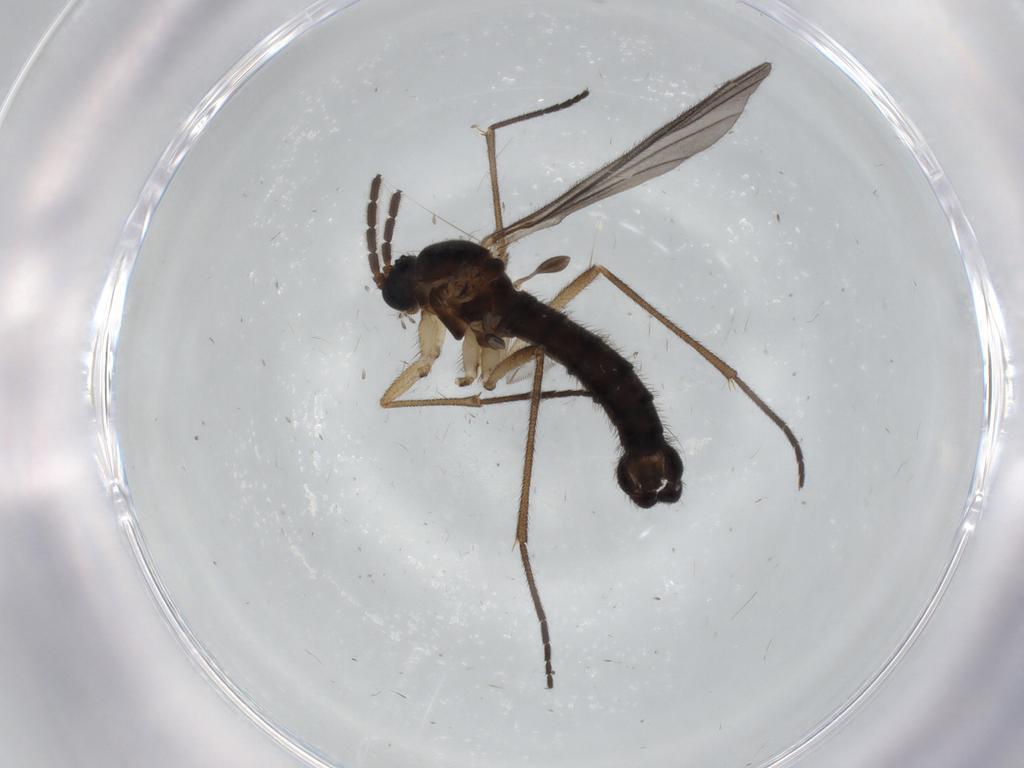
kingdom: Animalia
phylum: Arthropoda
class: Insecta
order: Diptera
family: Sciaridae
